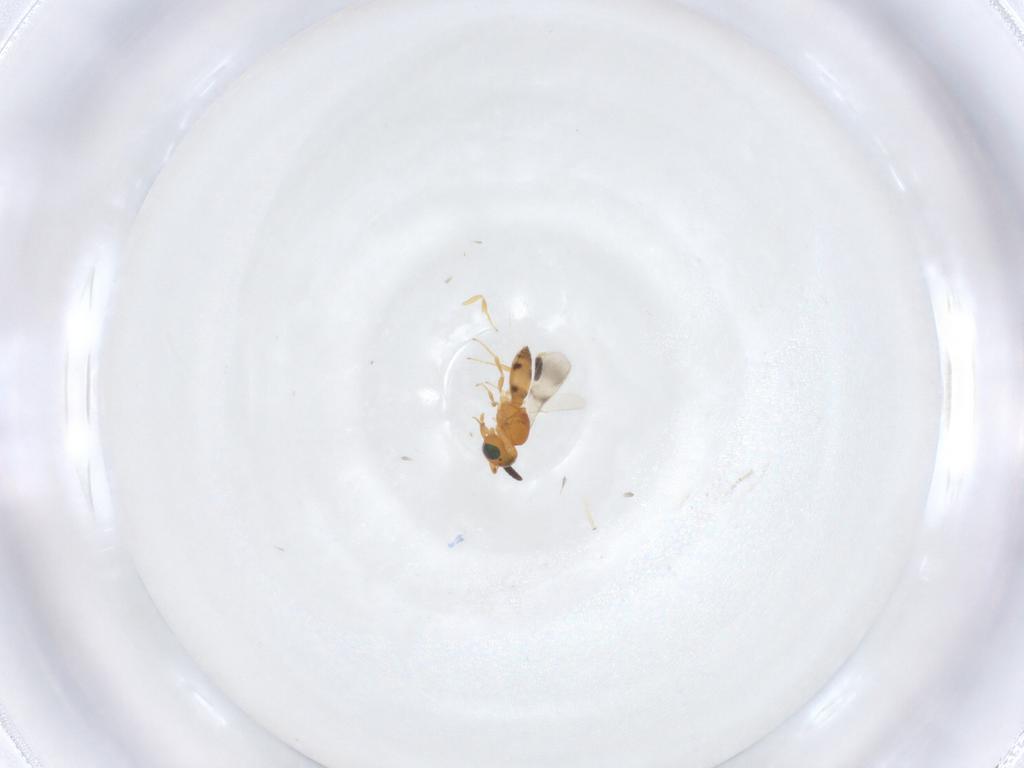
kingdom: Animalia
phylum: Arthropoda
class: Insecta
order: Hymenoptera
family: Scelionidae
